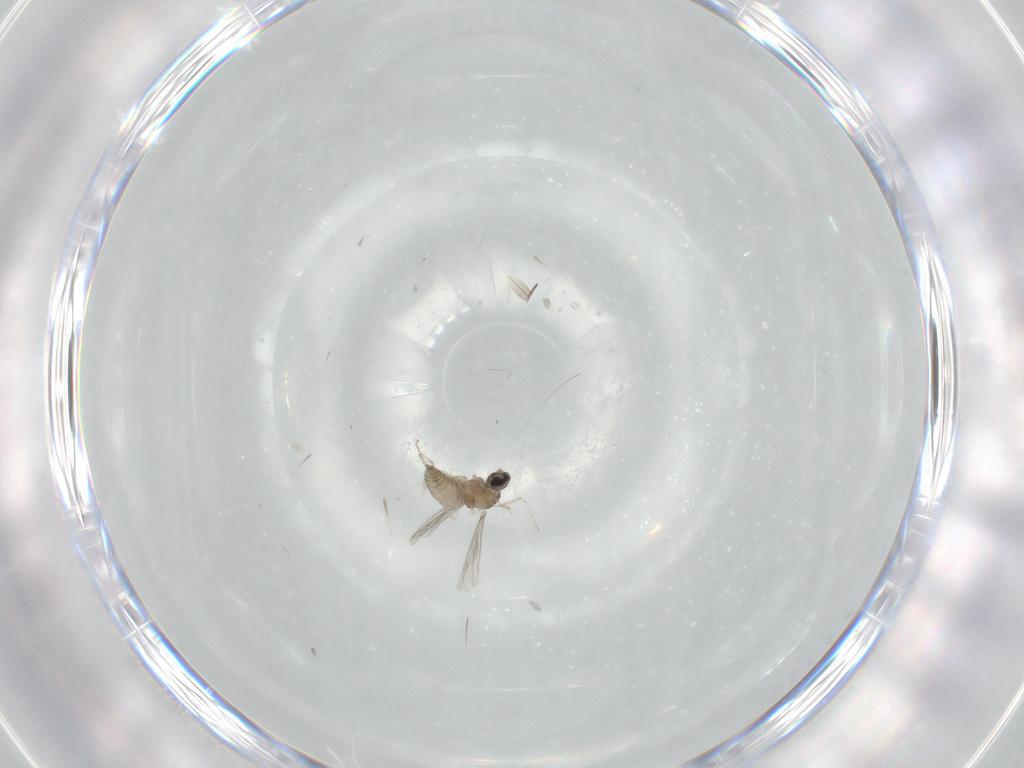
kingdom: Animalia
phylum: Arthropoda
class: Insecta
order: Diptera
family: Cecidomyiidae
